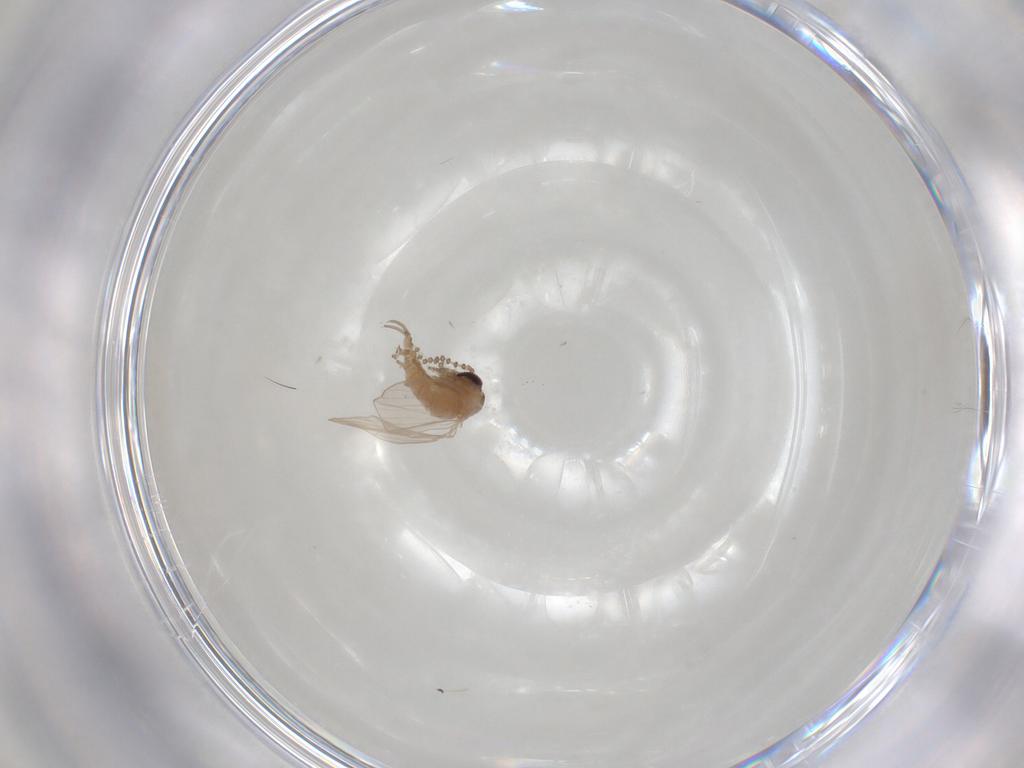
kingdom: Animalia
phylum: Arthropoda
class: Insecta
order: Diptera
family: Psychodidae
